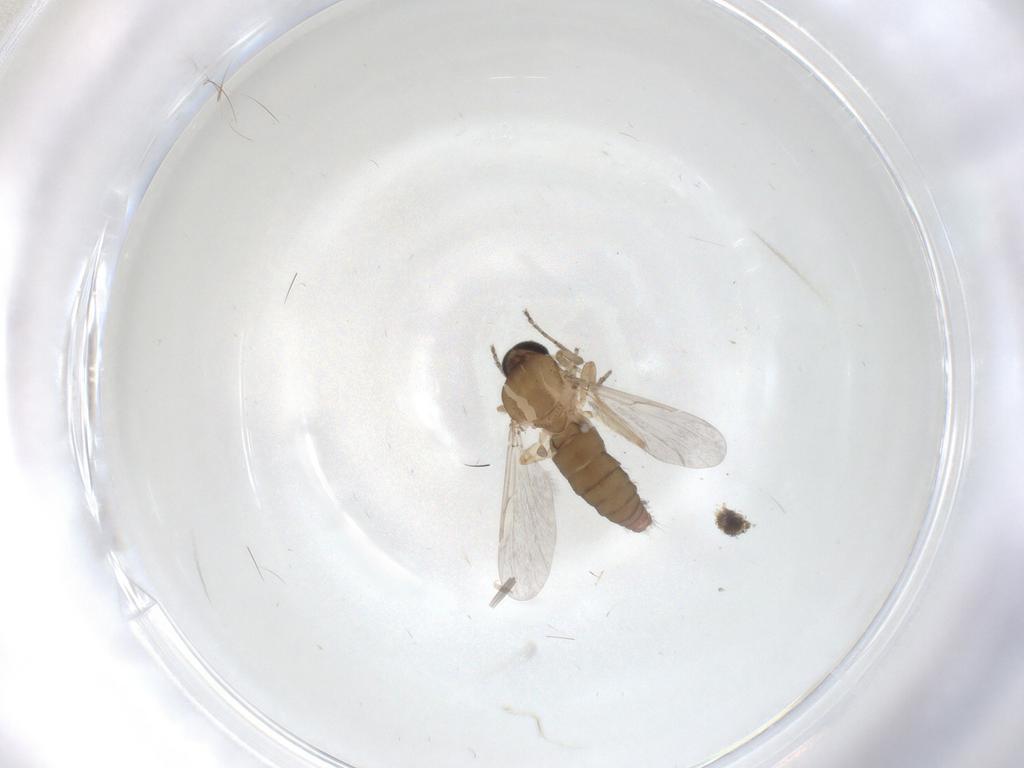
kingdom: Animalia
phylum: Arthropoda
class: Insecta
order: Diptera
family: Ceratopogonidae
